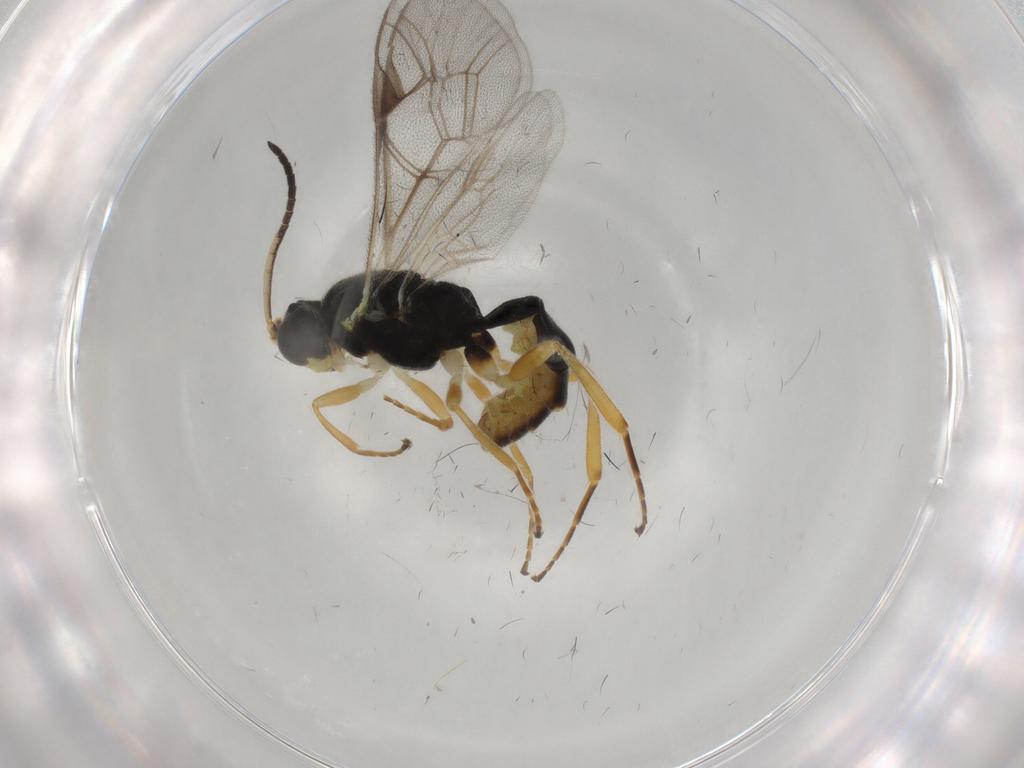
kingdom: Animalia
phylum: Arthropoda
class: Insecta
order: Hymenoptera
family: Ichneumonidae
